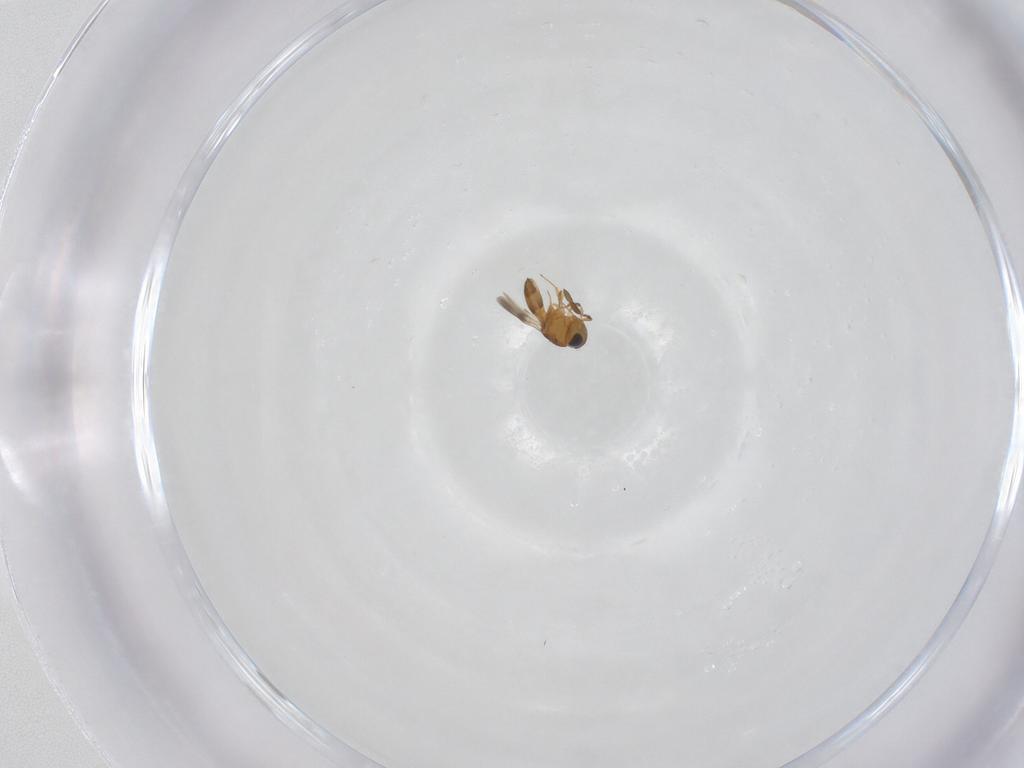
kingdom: Animalia
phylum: Arthropoda
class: Insecta
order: Hymenoptera
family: Scelionidae
